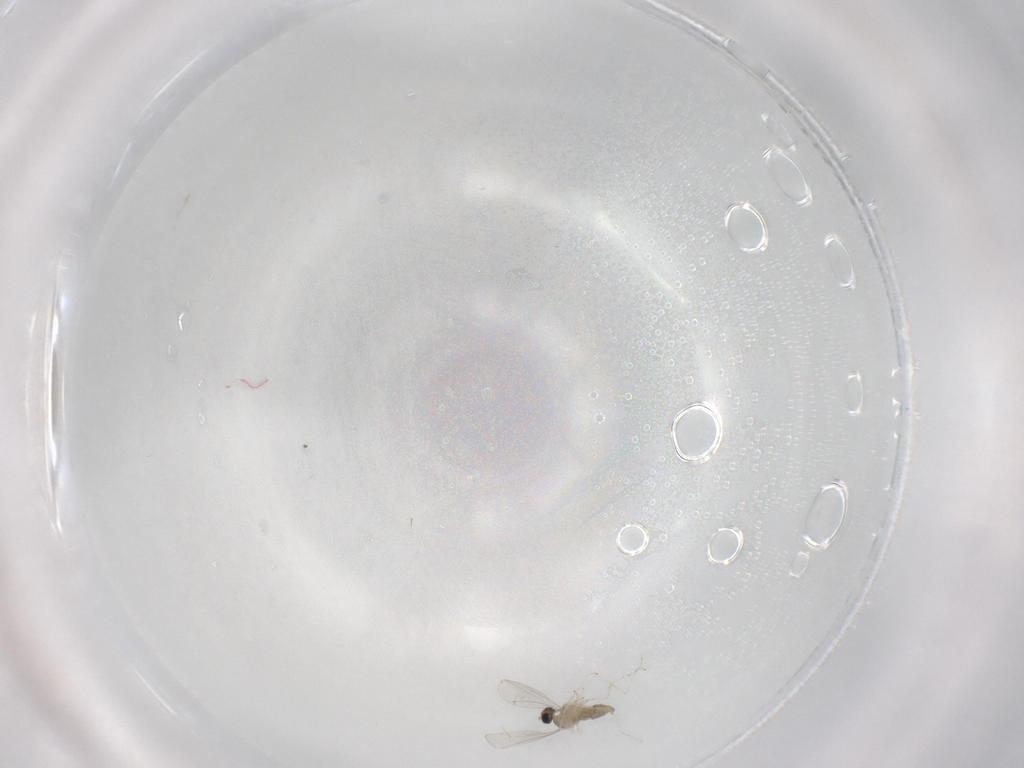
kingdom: Animalia
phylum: Arthropoda
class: Insecta
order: Diptera
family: Cecidomyiidae
